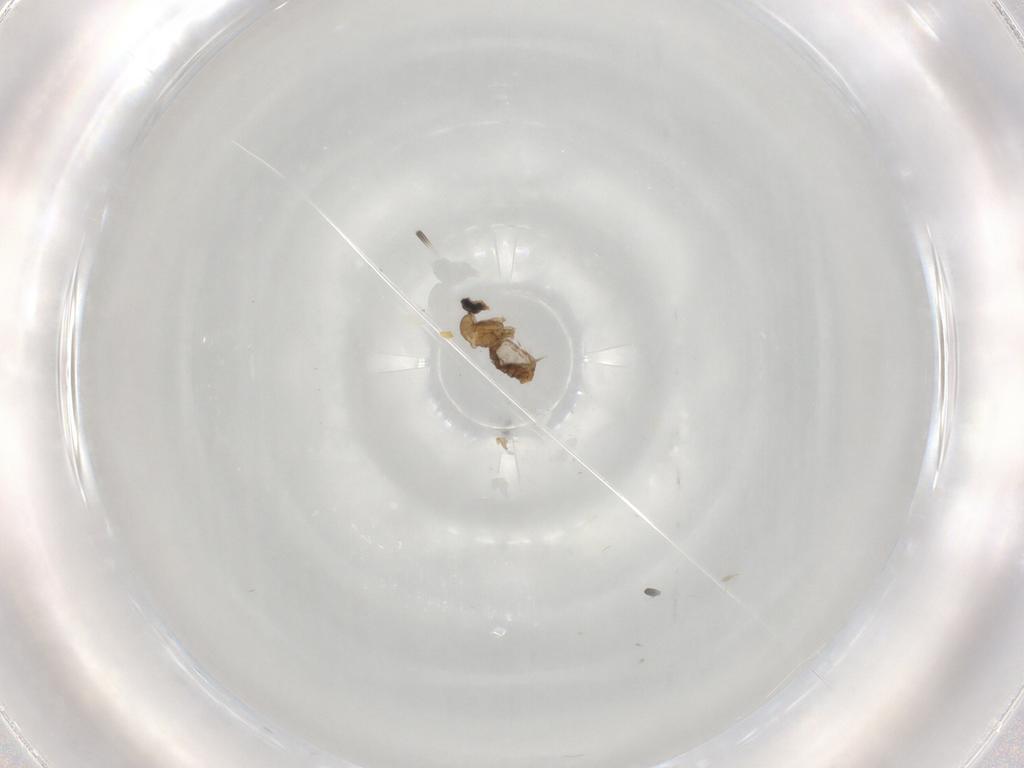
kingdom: Animalia
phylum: Arthropoda
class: Insecta
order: Diptera
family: Cecidomyiidae
